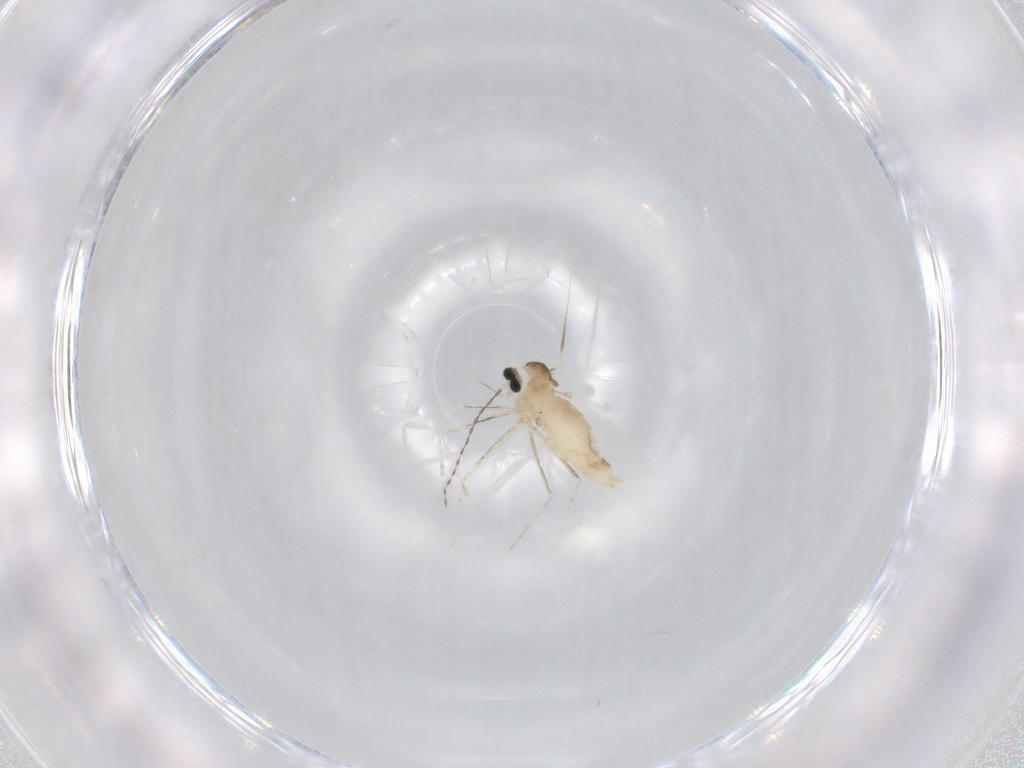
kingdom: Animalia
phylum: Arthropoda
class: Insecta
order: Diptera
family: Cecidomyiidae
